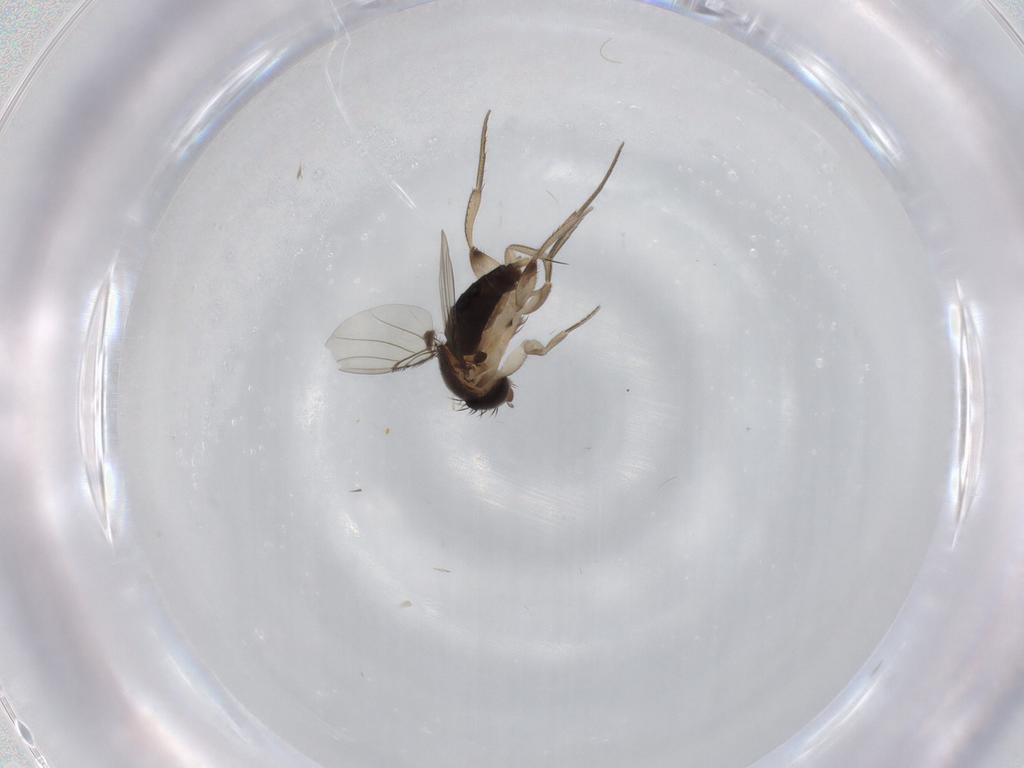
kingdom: Animalia
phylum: Arthropoda
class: Insecta
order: Diptera
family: Phoridae
